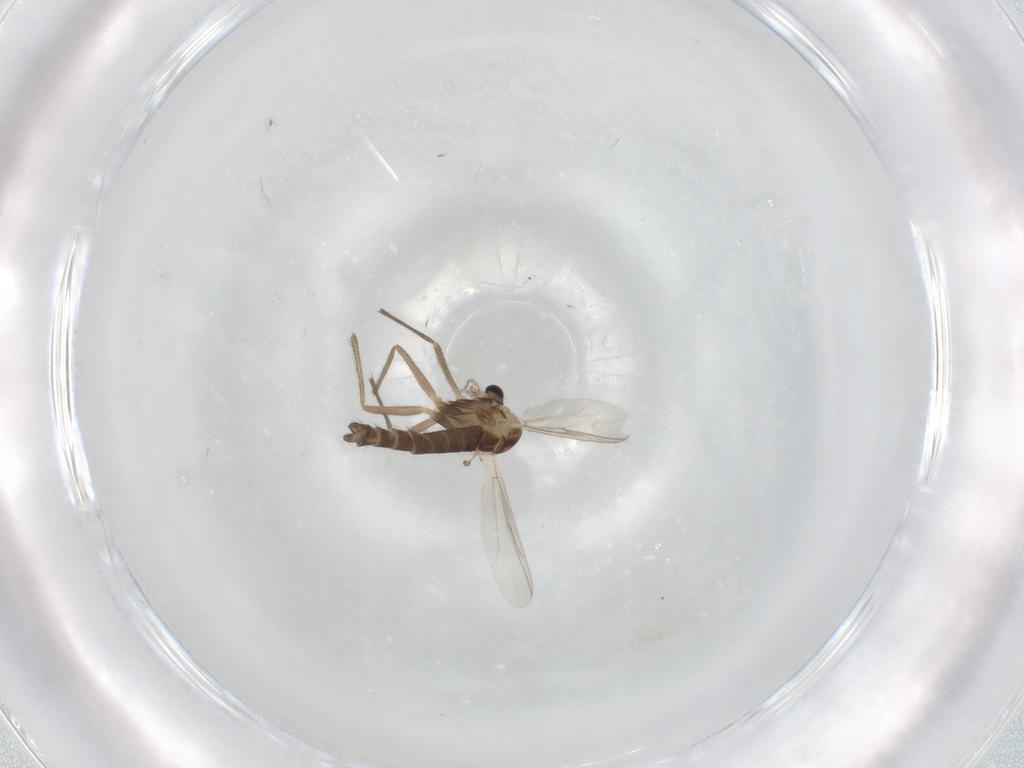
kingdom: Animalia
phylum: Arthropoda
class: Insecta
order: Diptera
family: Chironomidae
